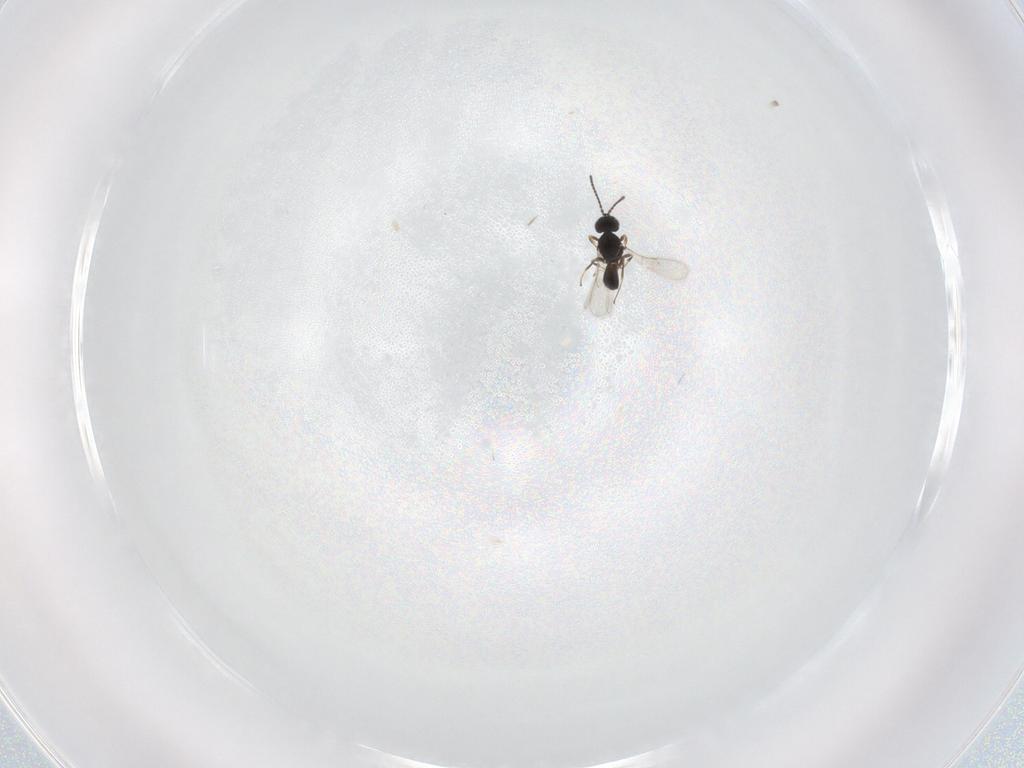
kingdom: Animalia
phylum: Arthropoda
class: Insecta
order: Hymenoptera
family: Scelionidae
